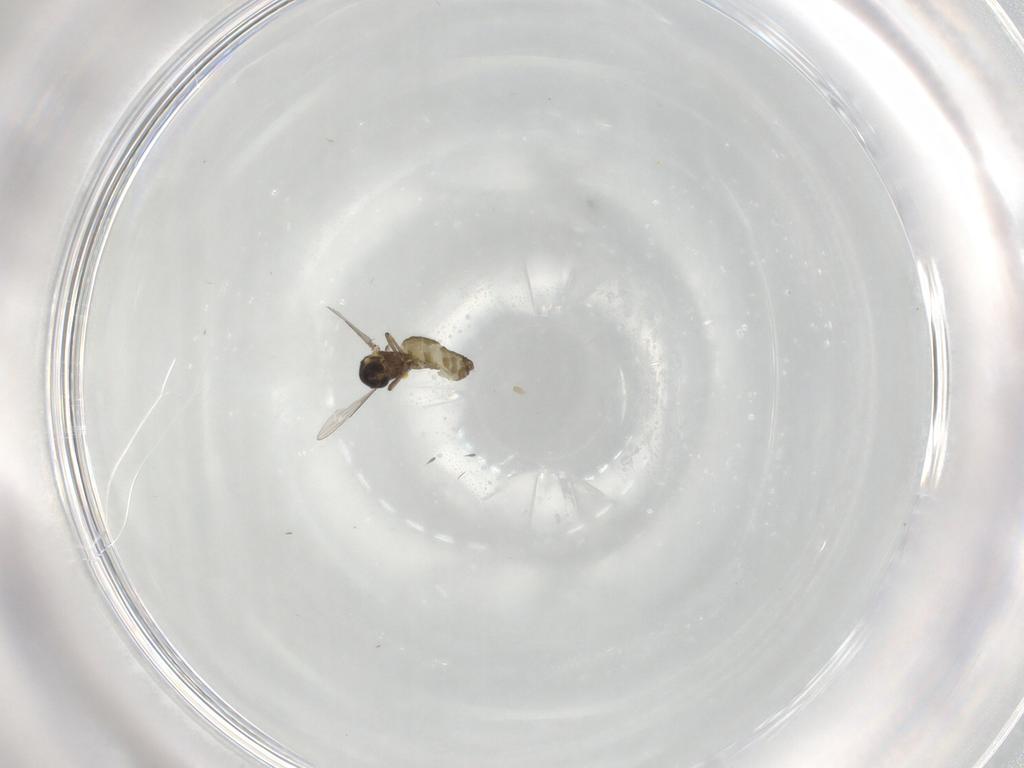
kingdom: Animalia
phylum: Arthropoda
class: Insecta
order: Diptera
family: Ceratopogonidae
